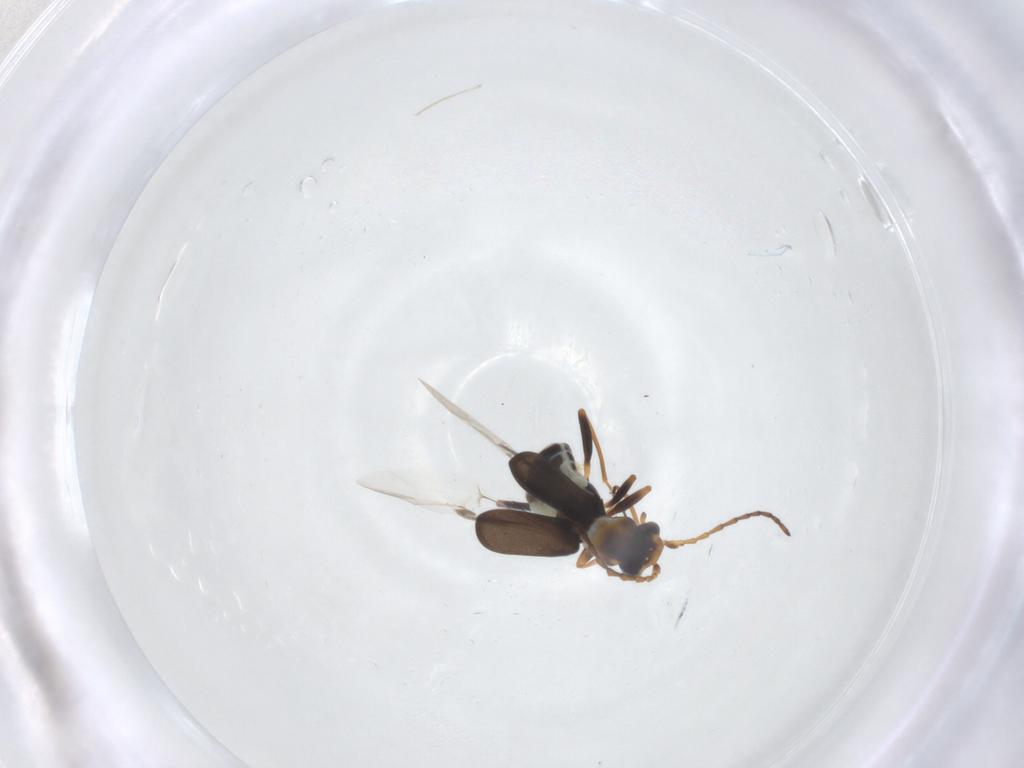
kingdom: Animalia
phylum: Arthropoda
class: Insecta
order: Coleoptera
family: Melyridae
